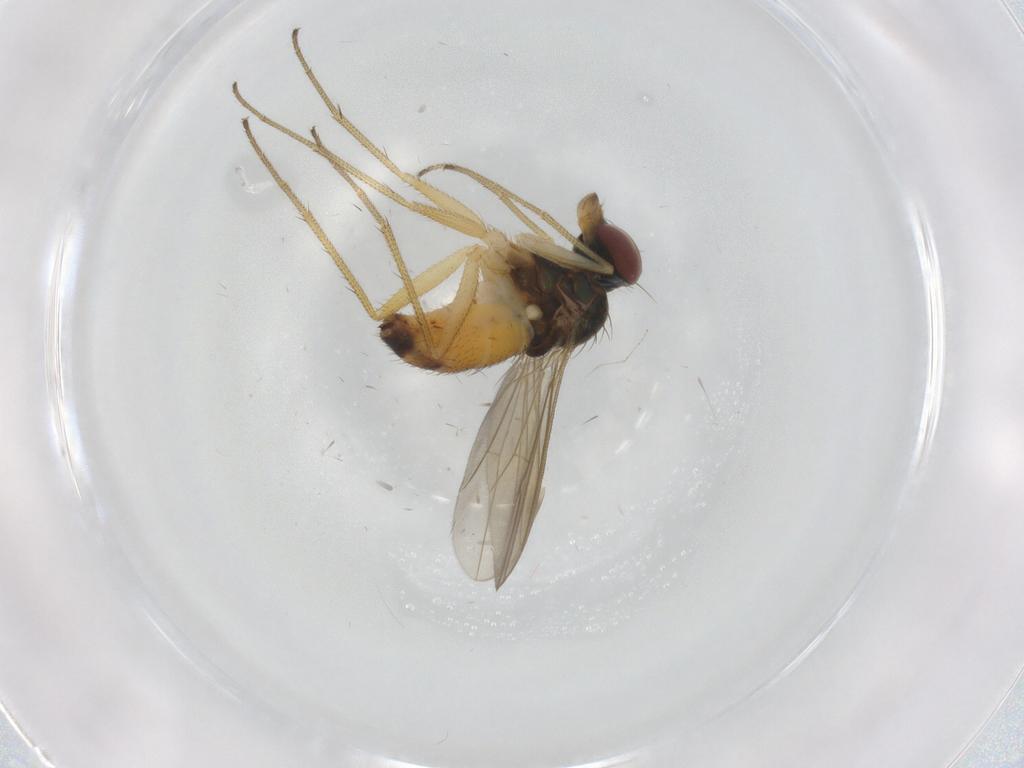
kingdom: Animalia
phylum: Arthropoda
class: Insecta
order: Diptera
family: Dolichopodidae
